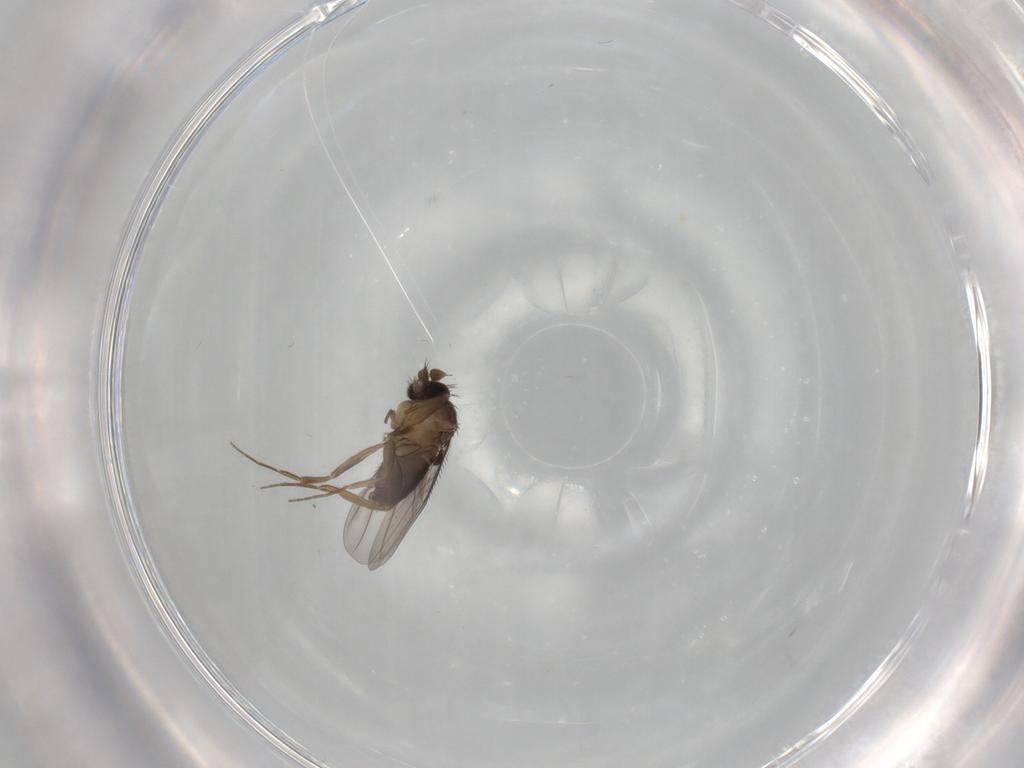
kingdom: Animalia
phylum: Arthropoda
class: Insecta
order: Diptera
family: Phoridae
